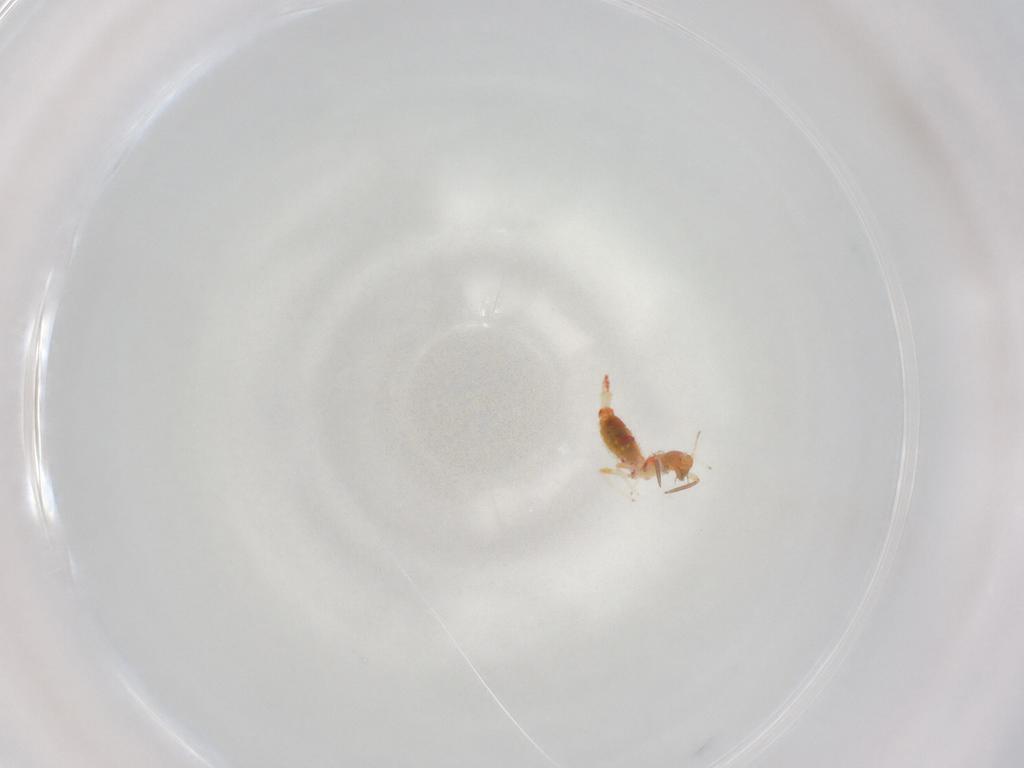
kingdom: Animalia
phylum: Arthropoda
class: Insecta
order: Thysanoptera
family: Aeolothripidae
